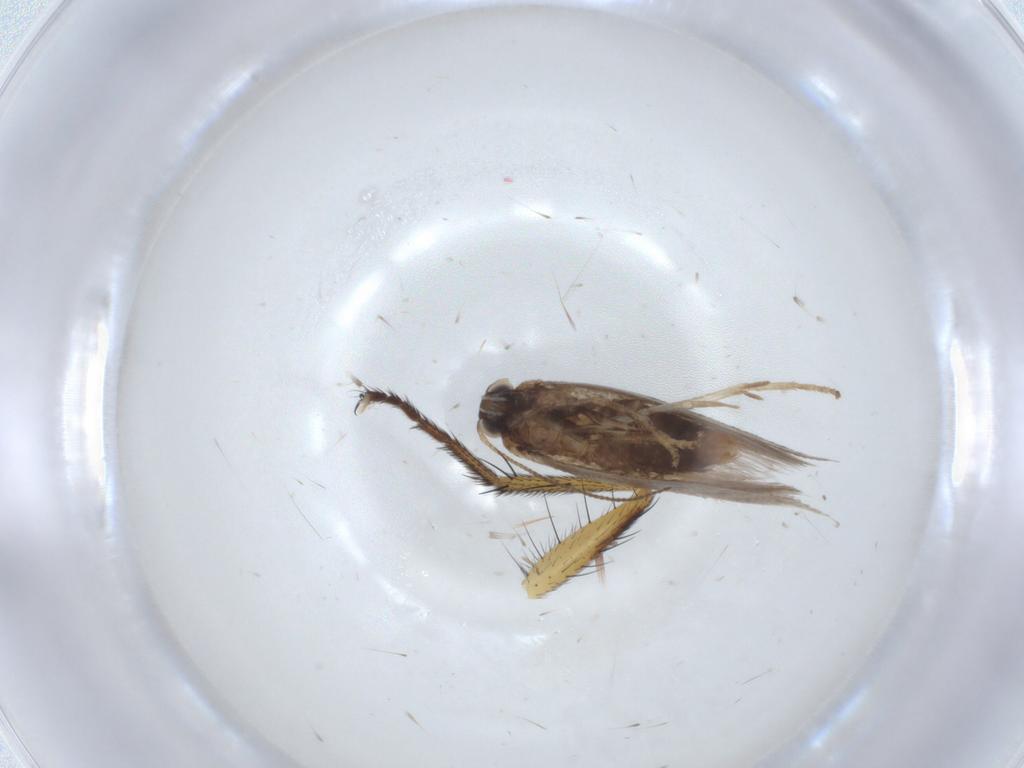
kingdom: Animalia
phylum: Arthropoda
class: Insecta
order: Lepidoptera
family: Nepticulidae
